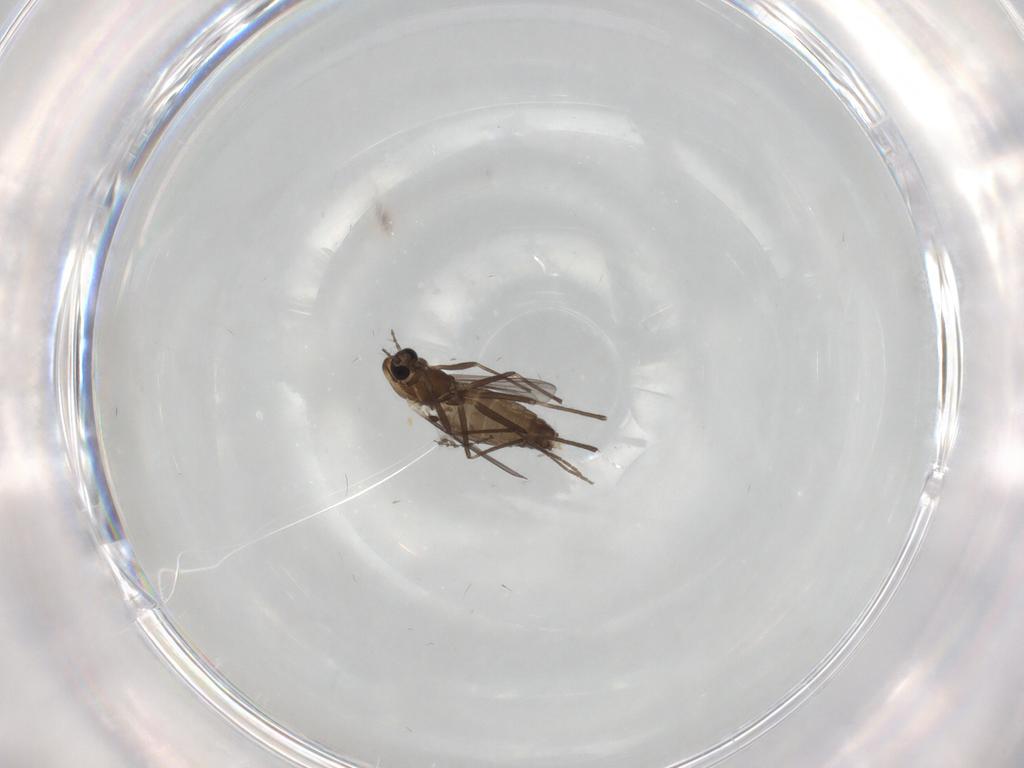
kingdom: Animalia
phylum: Arthropoda
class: Insecta
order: Diptera
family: Chironomidae
